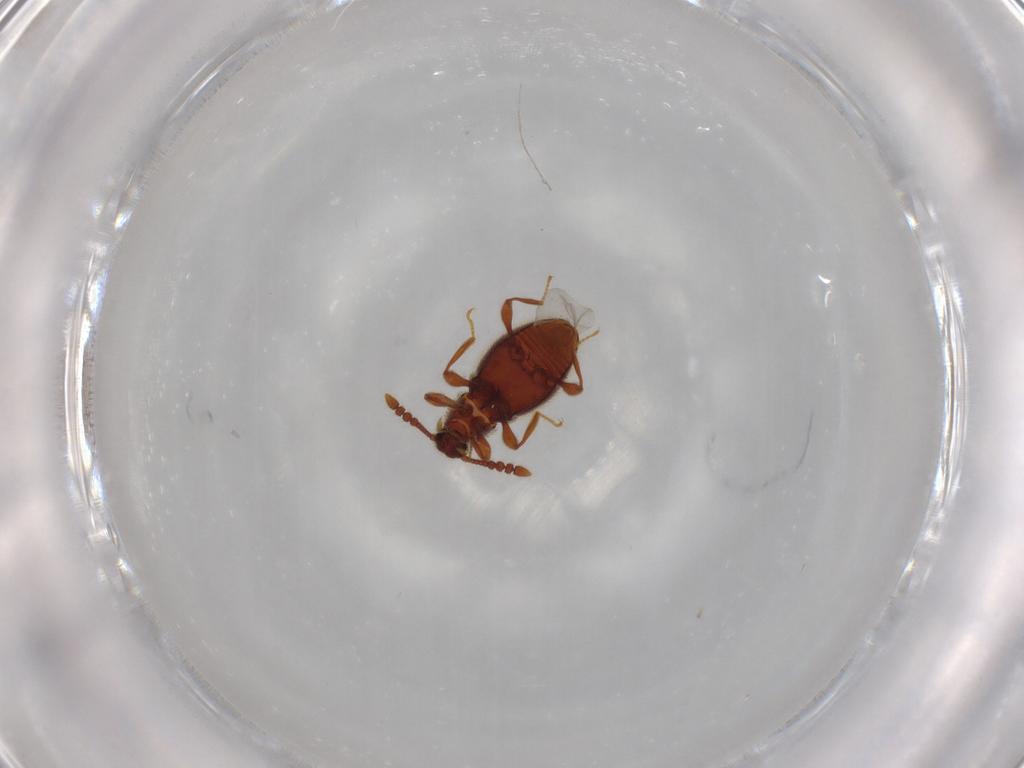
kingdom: Animalia
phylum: Arthropoda
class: Insecta
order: Coleoptera
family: Staphylinidae
